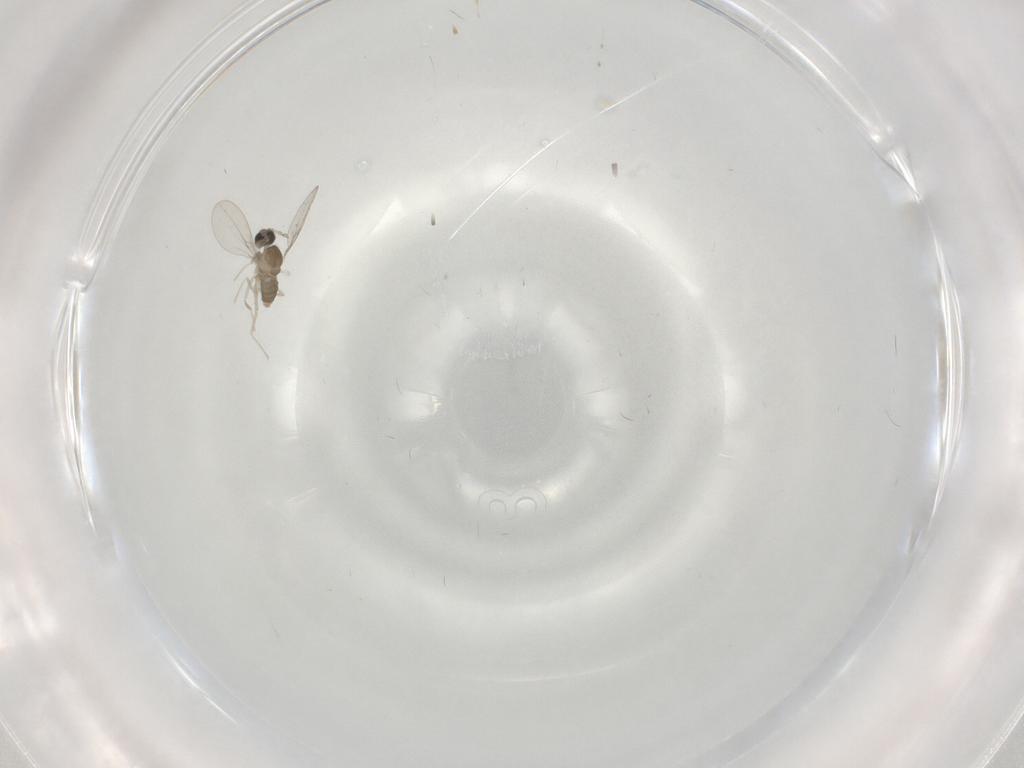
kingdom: Animalia
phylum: Arthropoda
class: Insecta
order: Diptera
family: Cecidomyiidae
